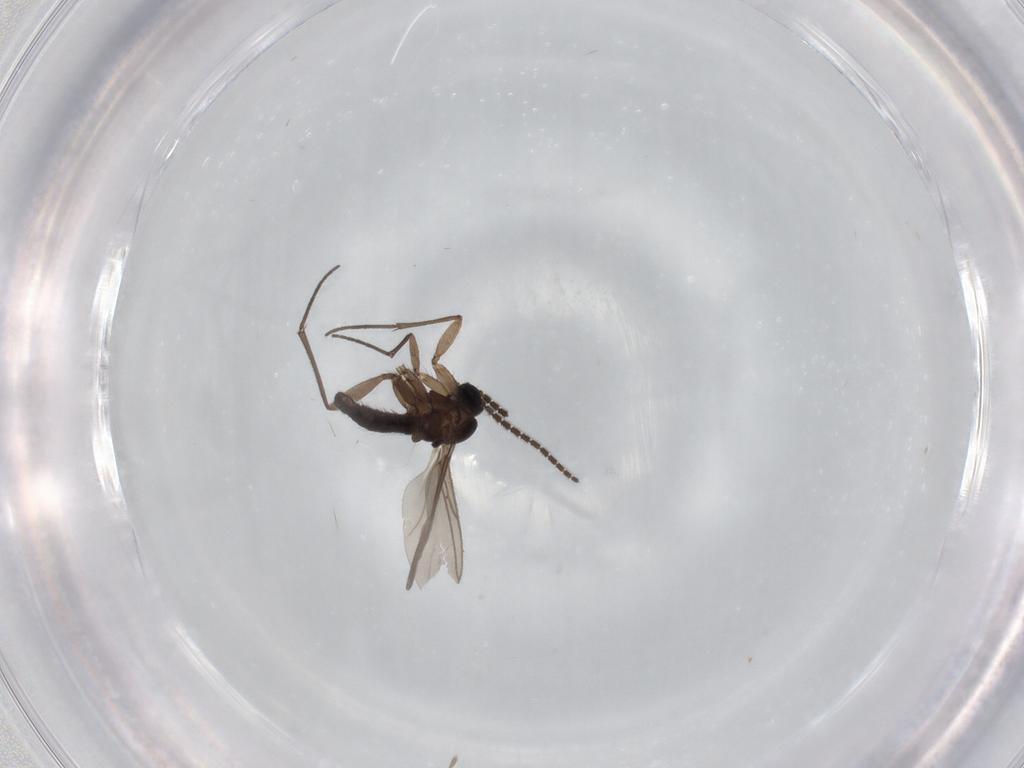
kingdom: Animalia
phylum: Arthropoda
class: Insecta
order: Diptera
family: Sciaridae
